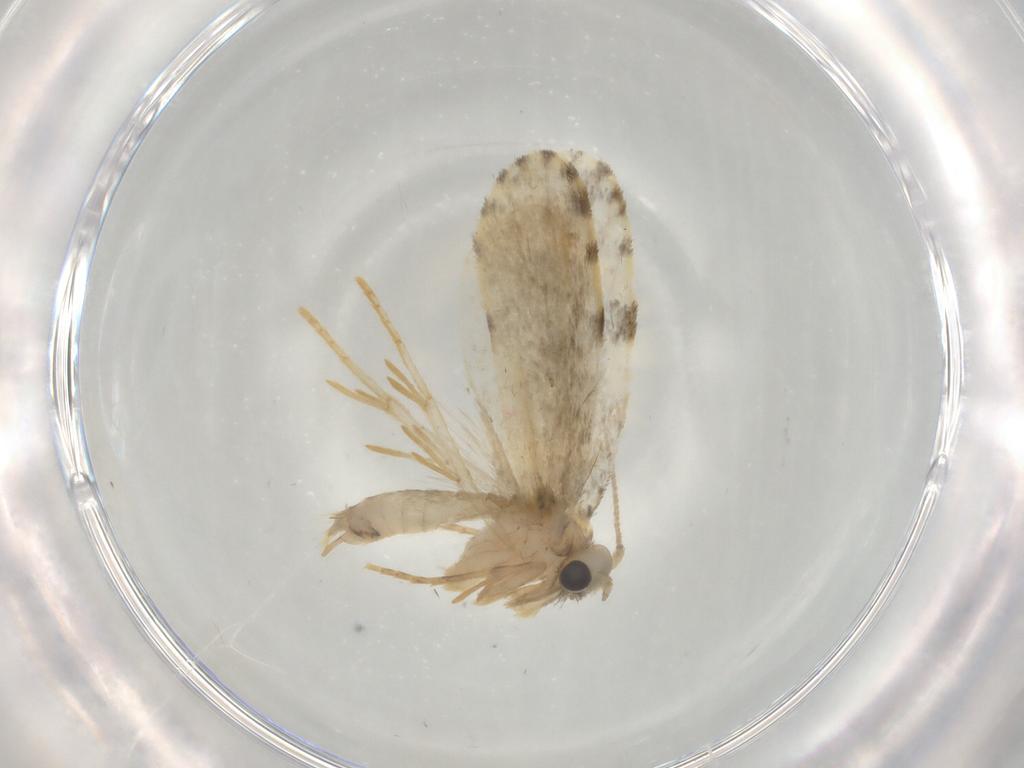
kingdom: Animalia
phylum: Arthropoda
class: Insecta
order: Lepidoptera
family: Psychidae
